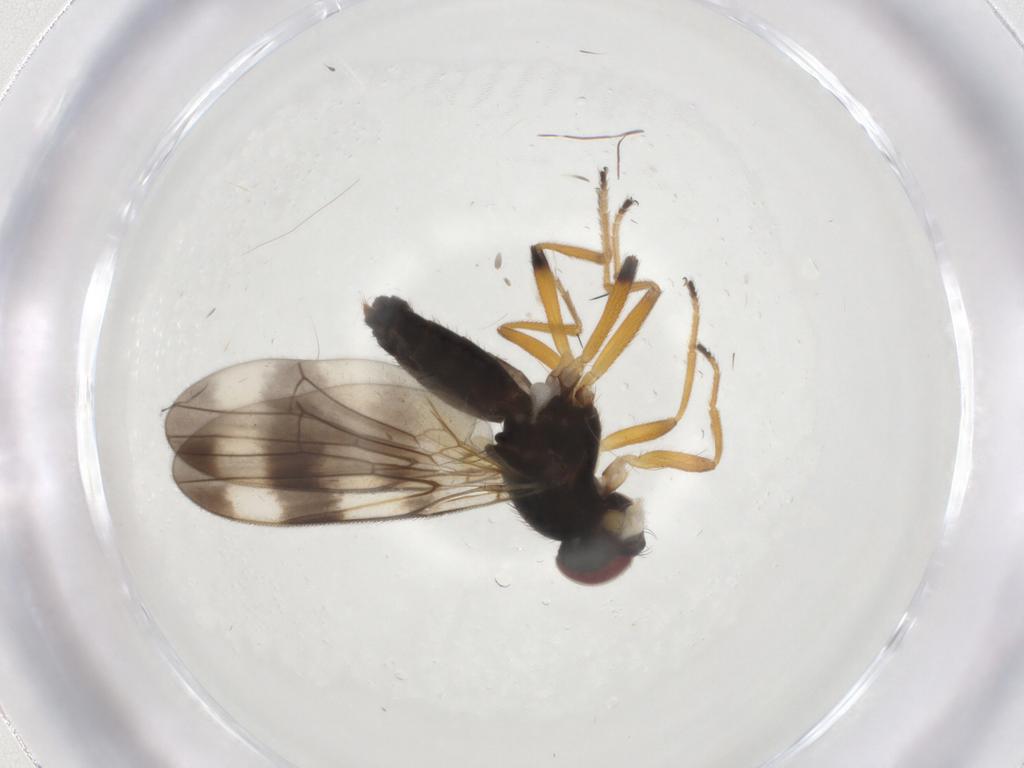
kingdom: Animalia
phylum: Arthropoda
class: Insecta
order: Diptera
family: Periscelididae
